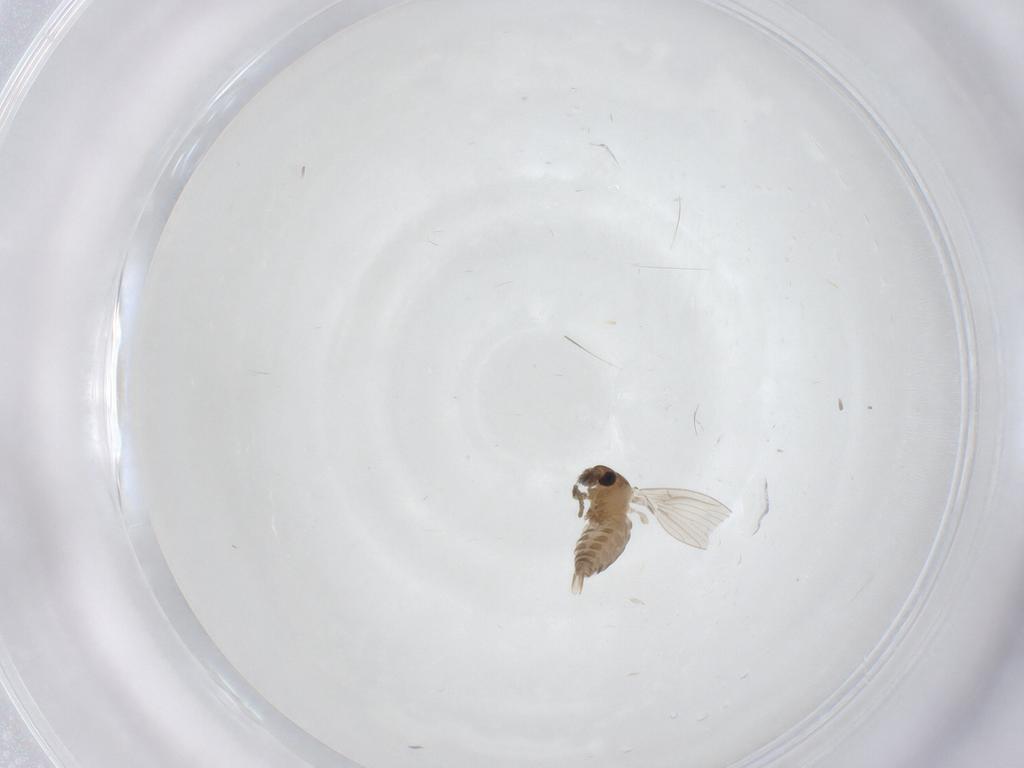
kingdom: Animalia
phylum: Arthropoda
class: Insecta
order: Diptera
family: Psychodidae
